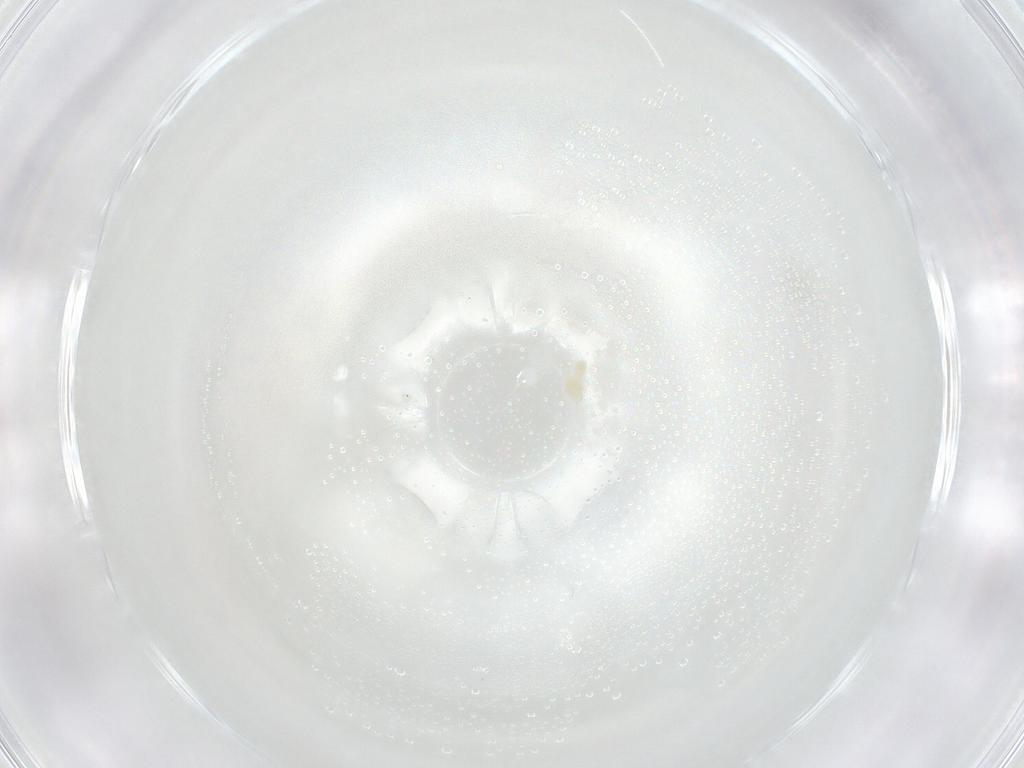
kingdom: Animalia
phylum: Arthropoda
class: Arachnida
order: Trombidiformes
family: Eupodidae
